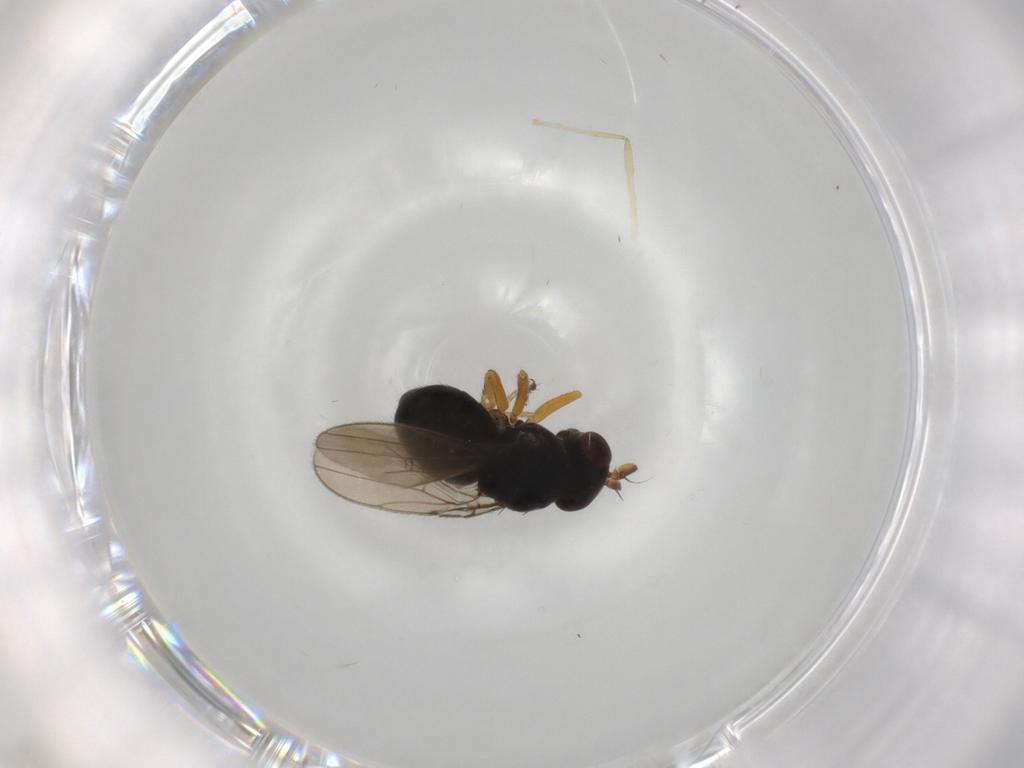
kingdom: Animalia
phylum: Arthropoda
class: Insecta
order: Diptera
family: Ephydridae
